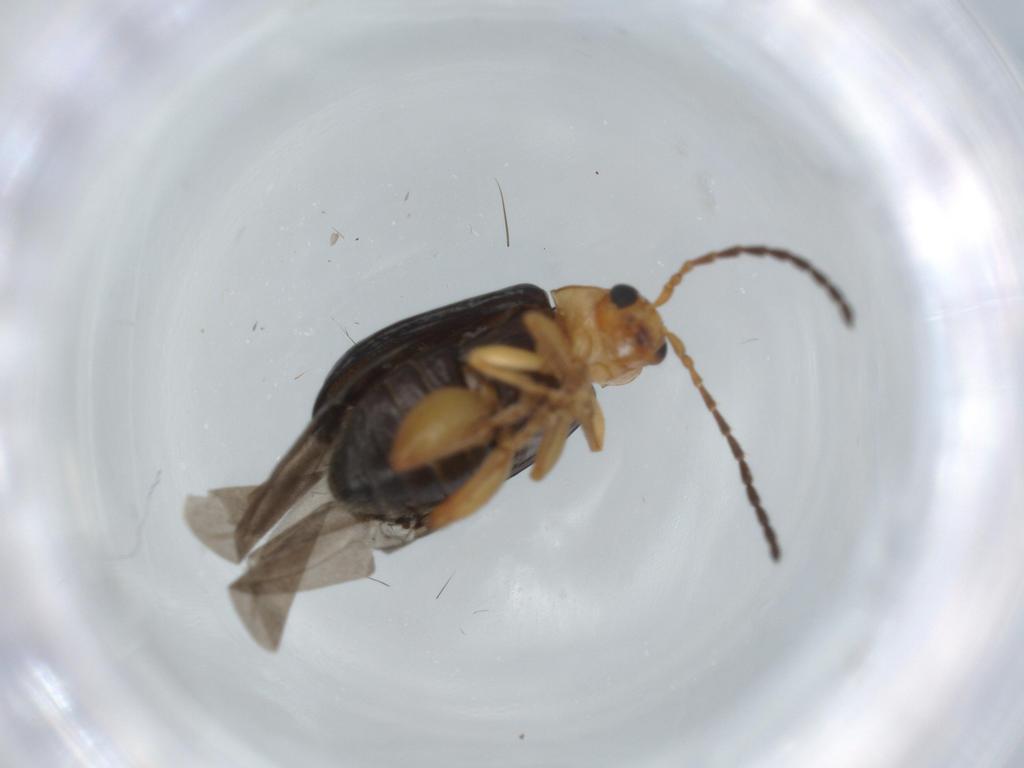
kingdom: Animalia
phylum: Arthropoda
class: Insecta
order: Coleoptera
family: Chrysomelidae
